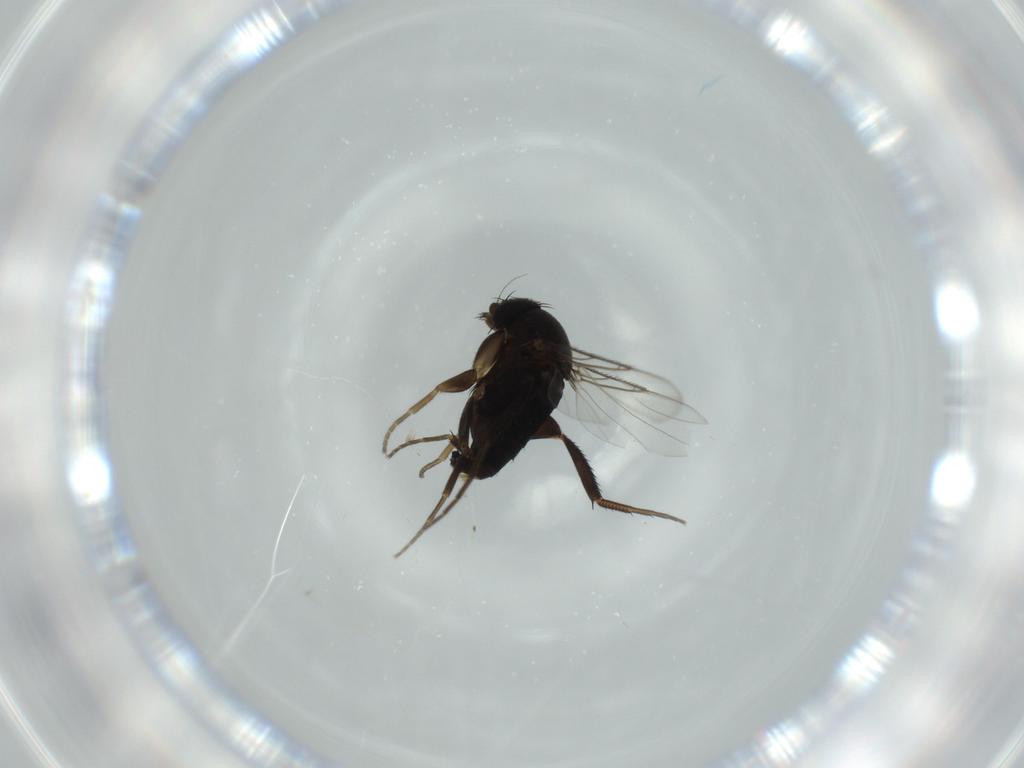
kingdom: Animalia
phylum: Arthropoda
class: Insecta
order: Diptera
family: Phoridae
